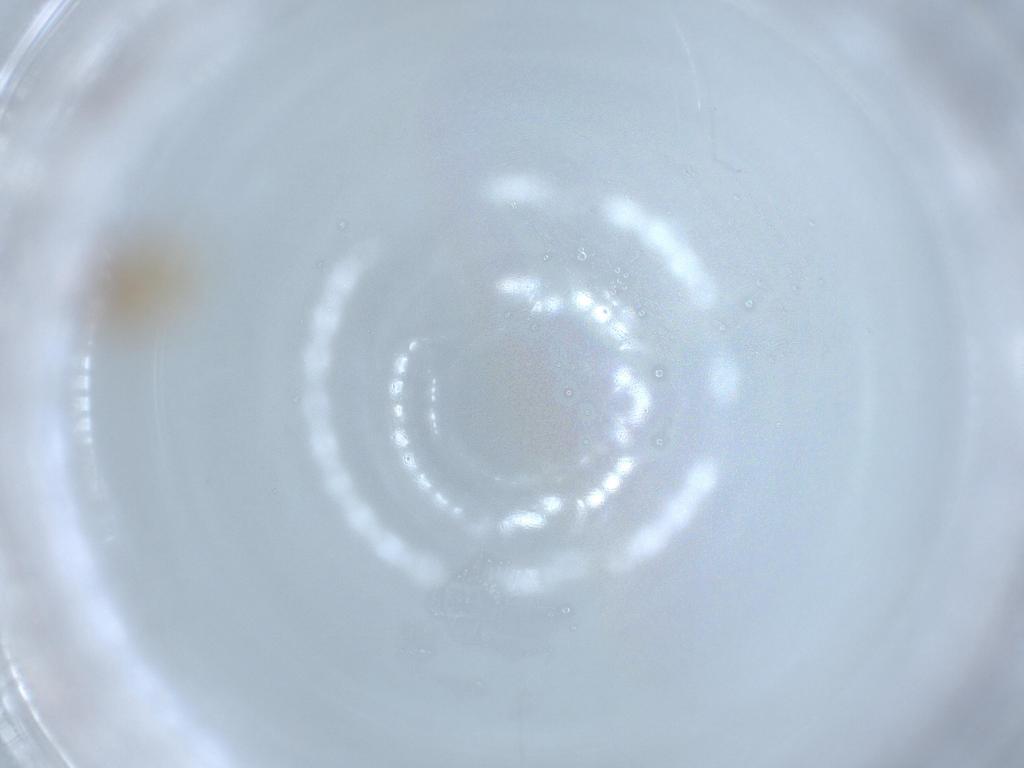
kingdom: Animalia
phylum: Arthropoda
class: Insecta
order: Hemiptera
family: Nogodinidae
